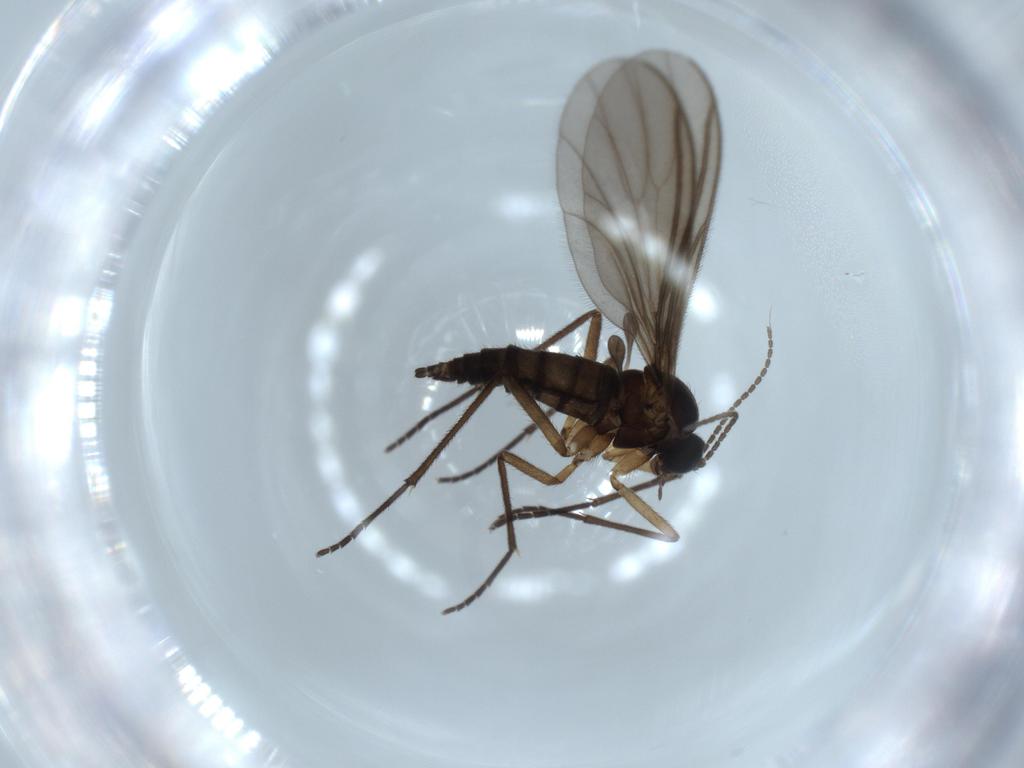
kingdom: Animalia
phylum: Arthropoda
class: Insecta
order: Diptera
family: Sciaridae
